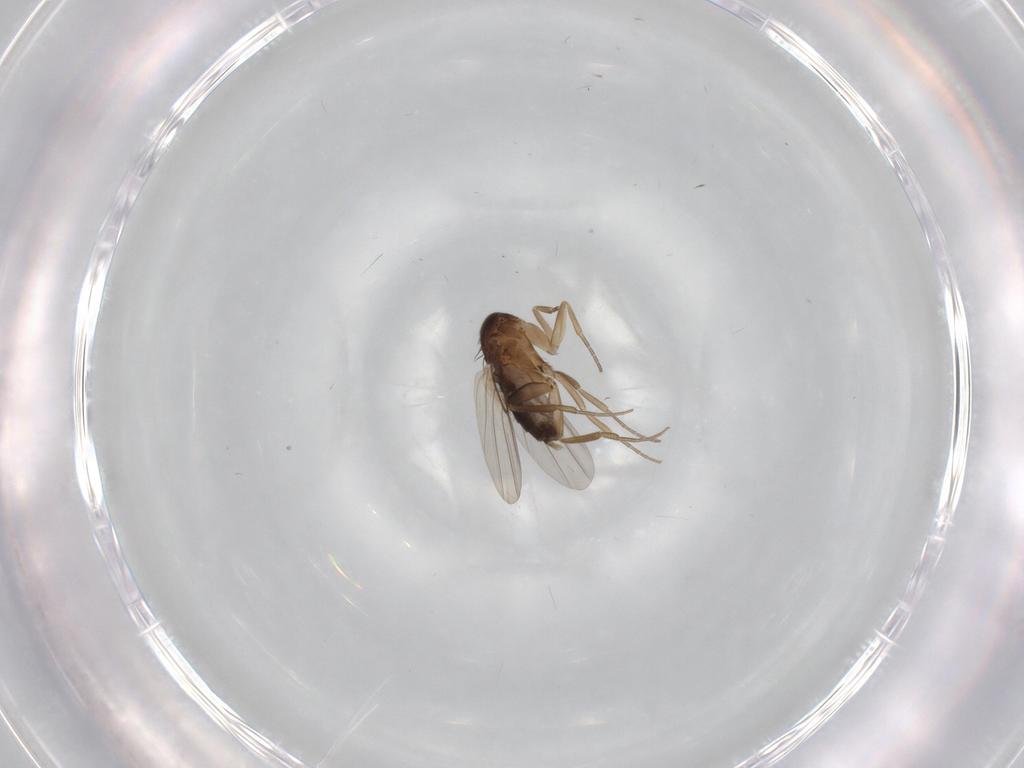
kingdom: Animalia
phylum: Arthropoda
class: Insecta
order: Diptera
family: Phoridae
